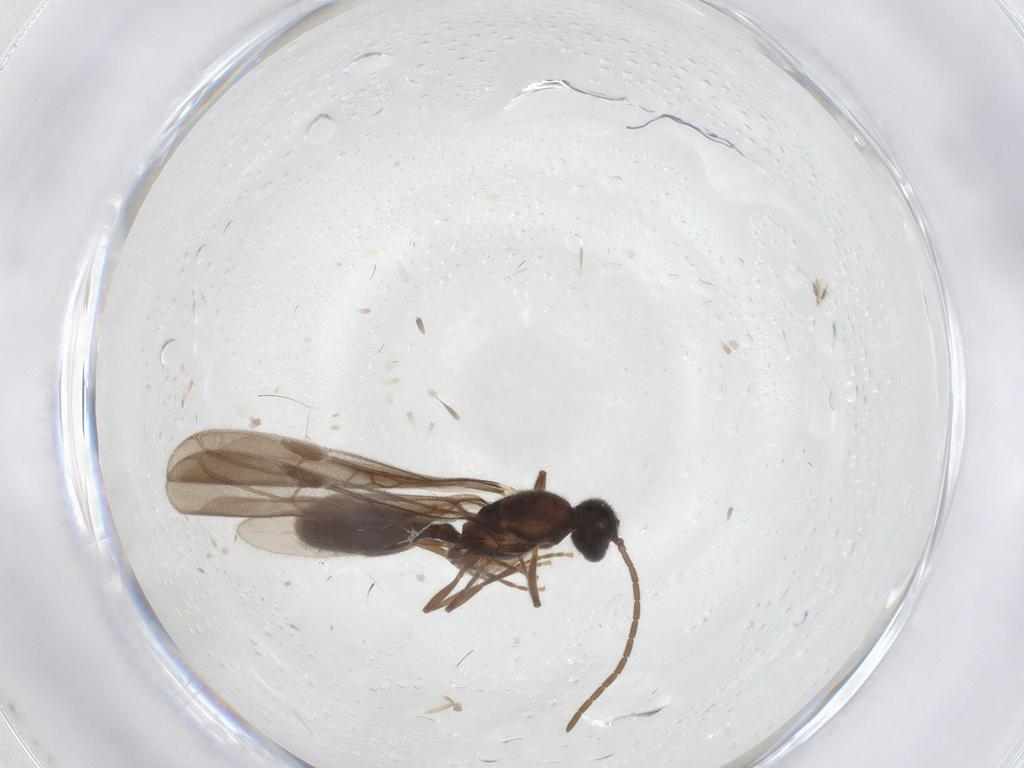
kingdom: Animalia
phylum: Arthropoda
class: Insecta
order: Hymenoptera
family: Formicidae
